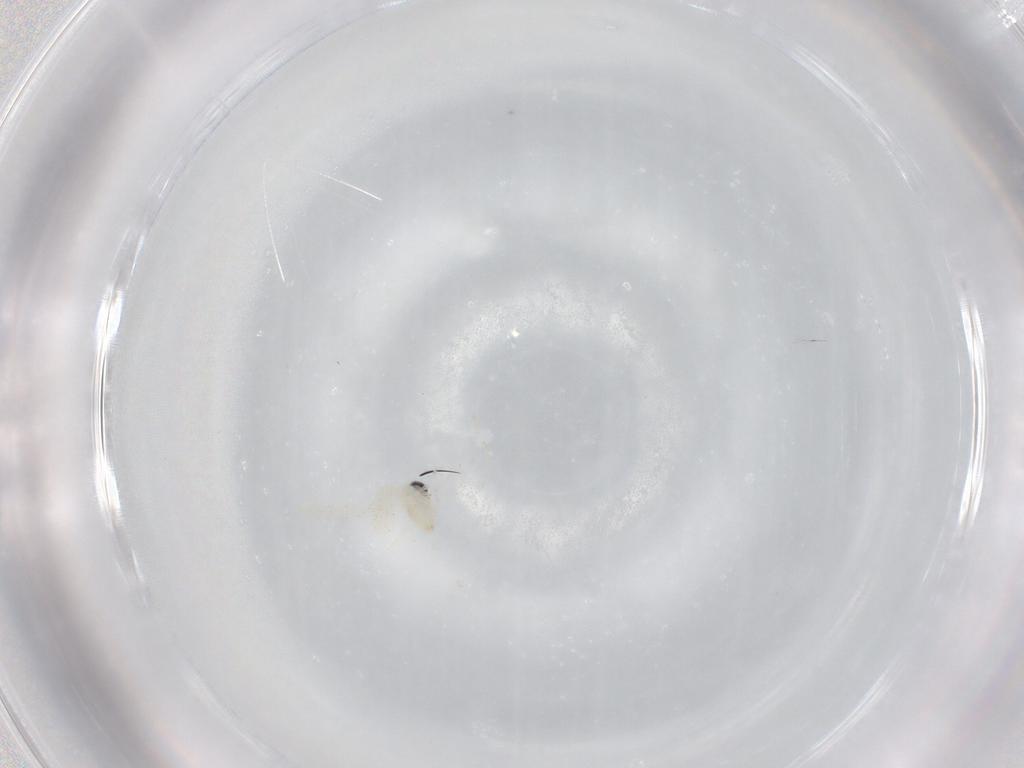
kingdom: Animalia
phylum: Arthropoda
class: Insecta
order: Diptera
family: Cecidomyiidae
